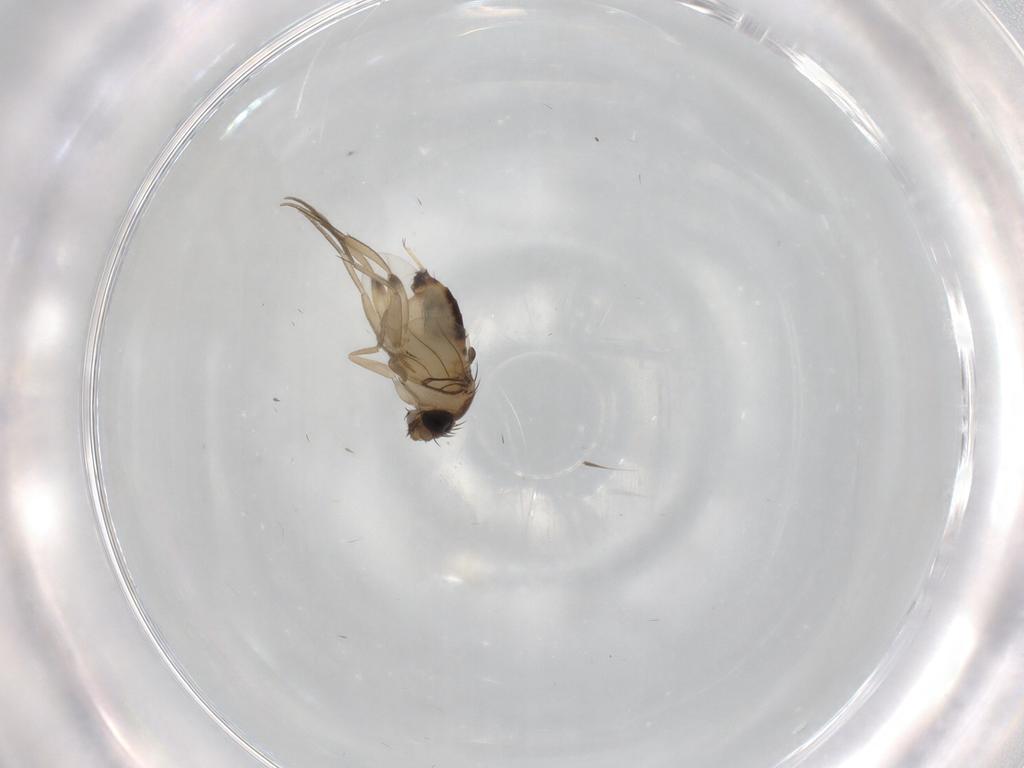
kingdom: Animalia
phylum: Arthropoda
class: Insecta
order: Diptera
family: Phoridae
